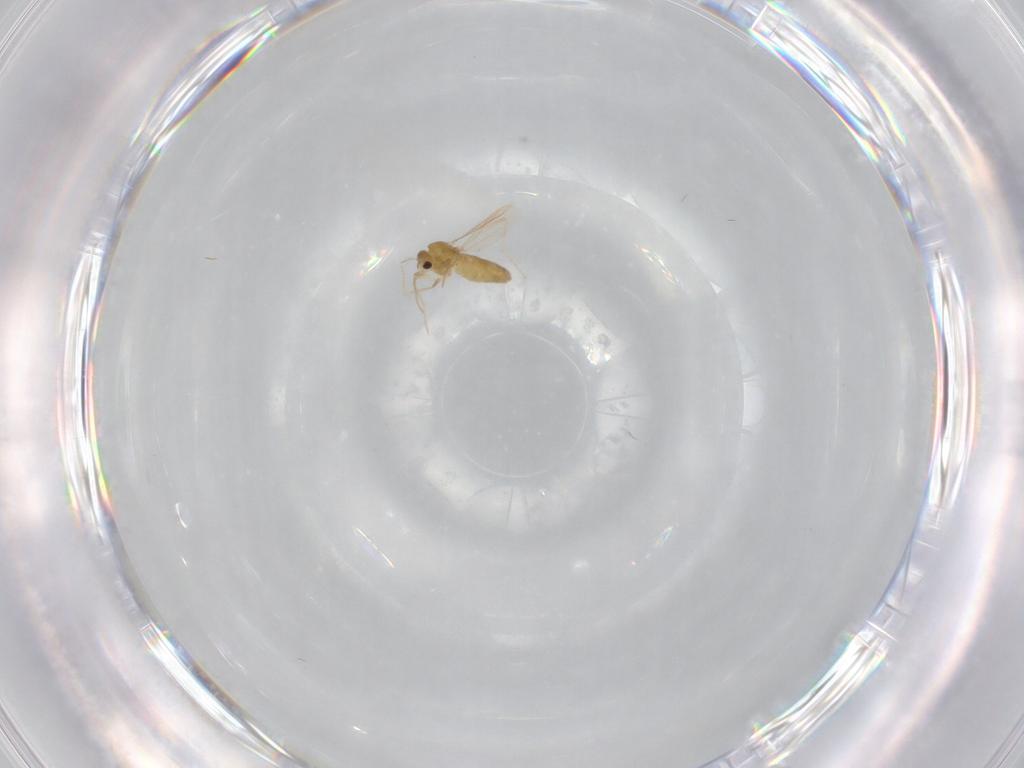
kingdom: Animalia
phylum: Arthropoda
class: Insecta
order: Diptera
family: Chironomidae
